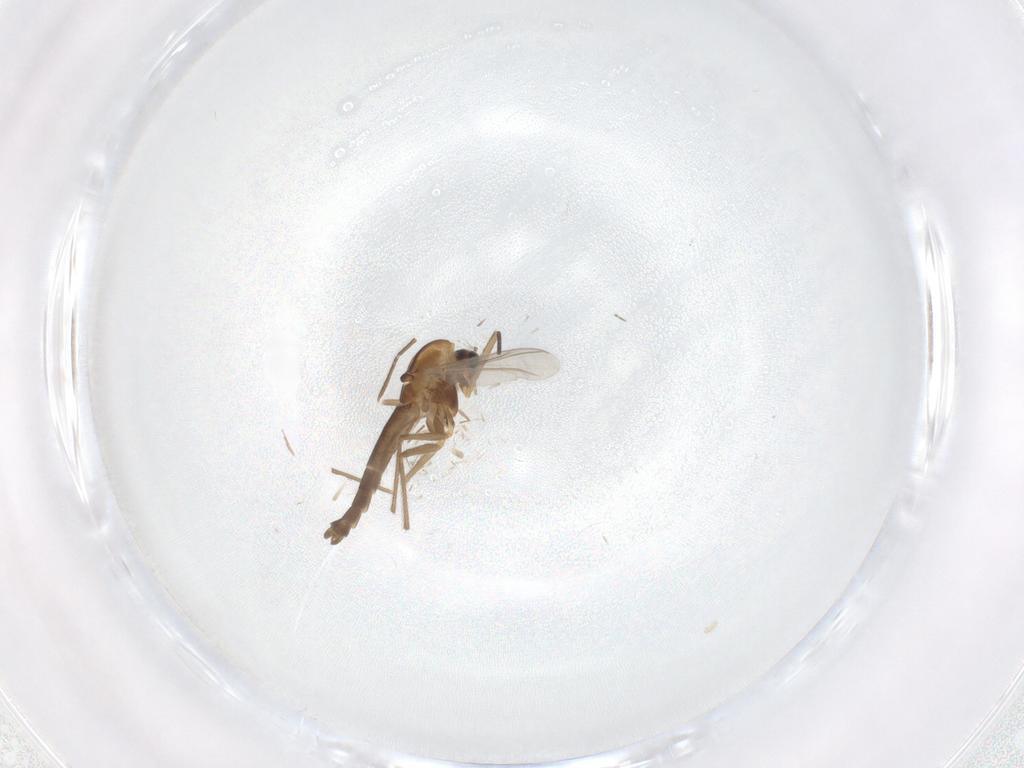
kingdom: Animalia
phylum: Arthropoda
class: Insecta
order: Diptera
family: Chironomidae
